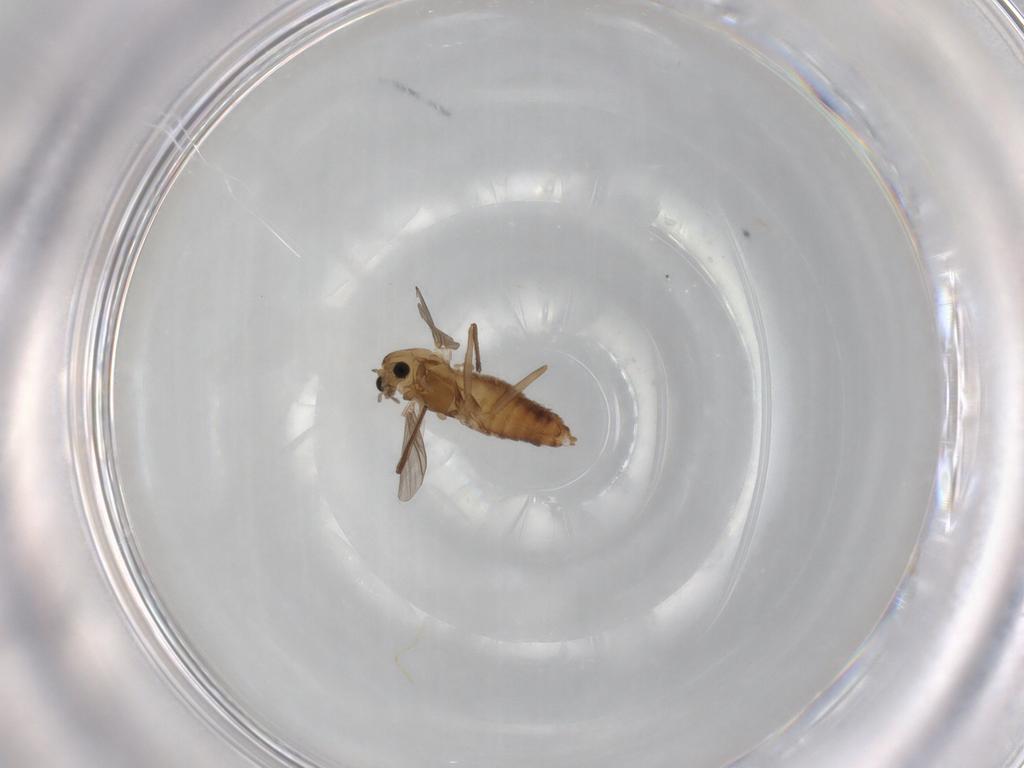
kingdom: Animalia
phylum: Arthropoda
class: Insecta
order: Diptera
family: Chironomidae
